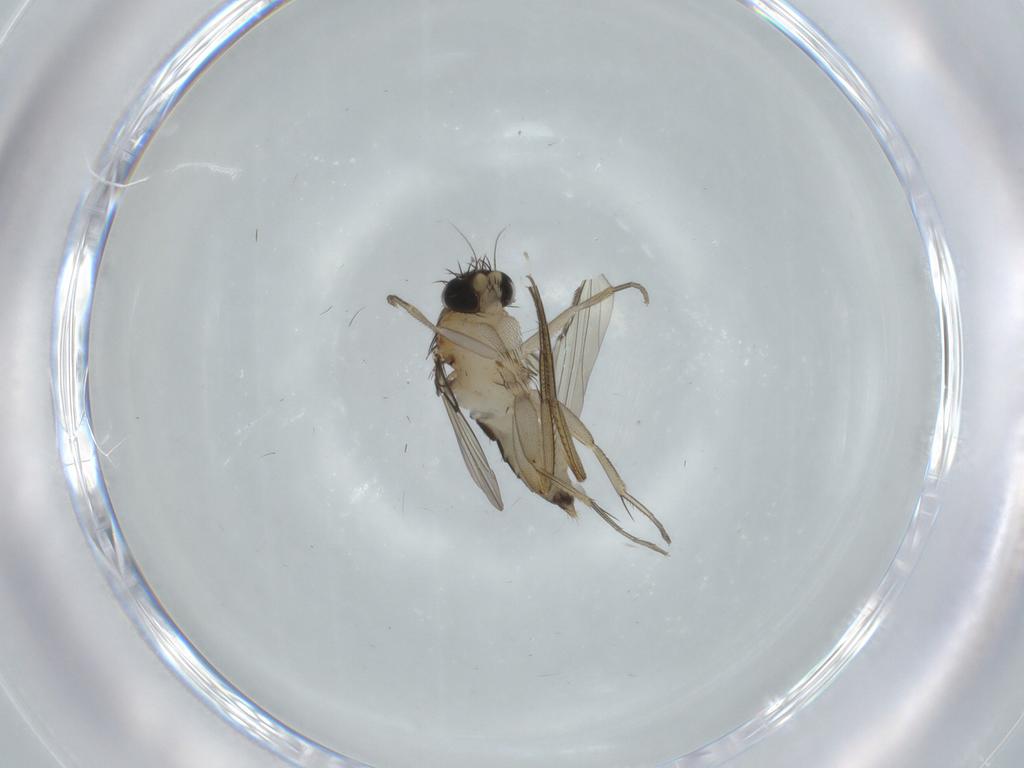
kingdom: Animalia
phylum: Arthropoda
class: Insecta
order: Diptera
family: Phoridae
